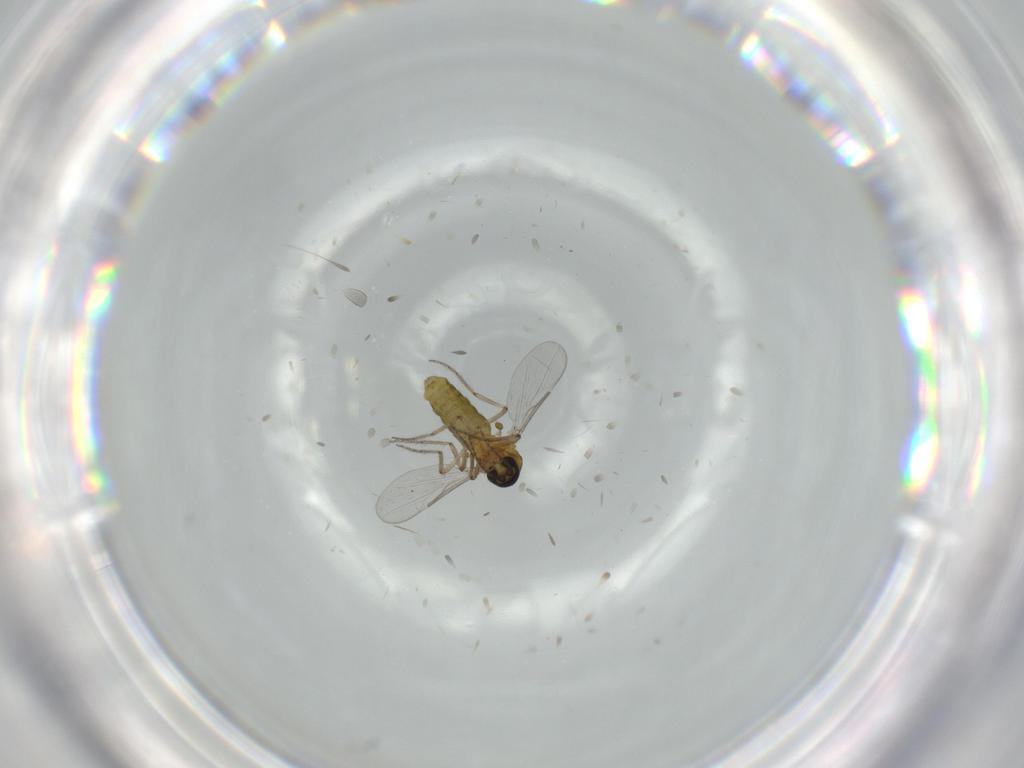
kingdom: Animalia
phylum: Arthropoda
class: Insecta
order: Diptera
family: Ceratopogonidae
